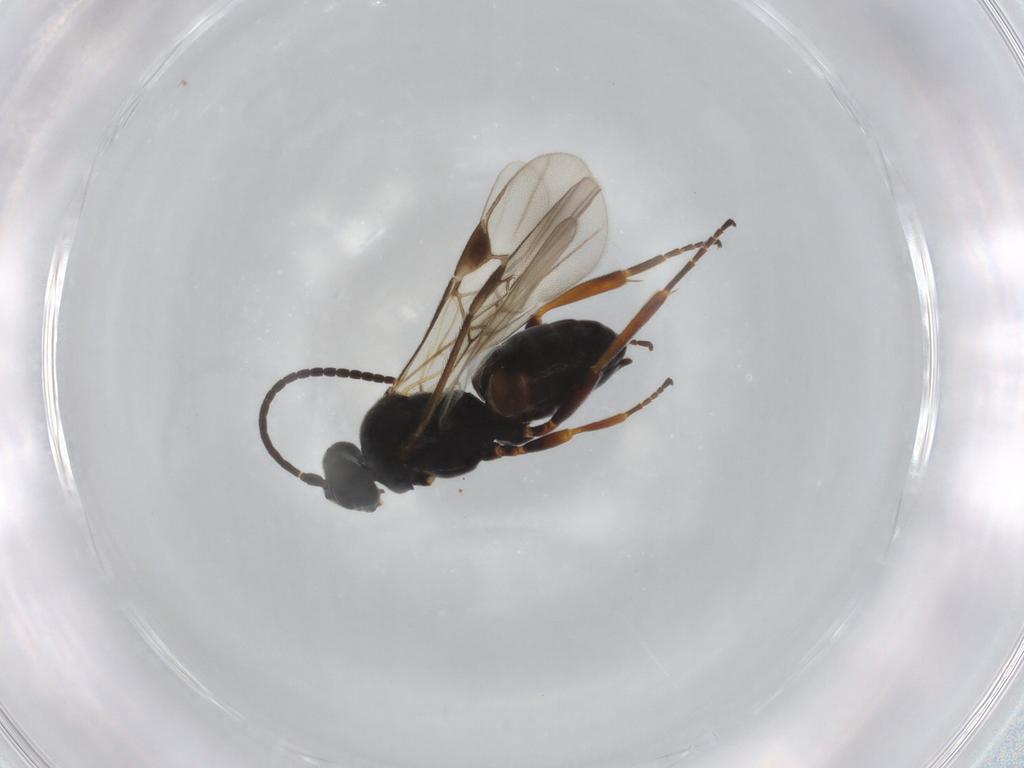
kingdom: Animalia
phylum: Arthropoda
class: Insecta
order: Hymenoptera
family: Braconidae
